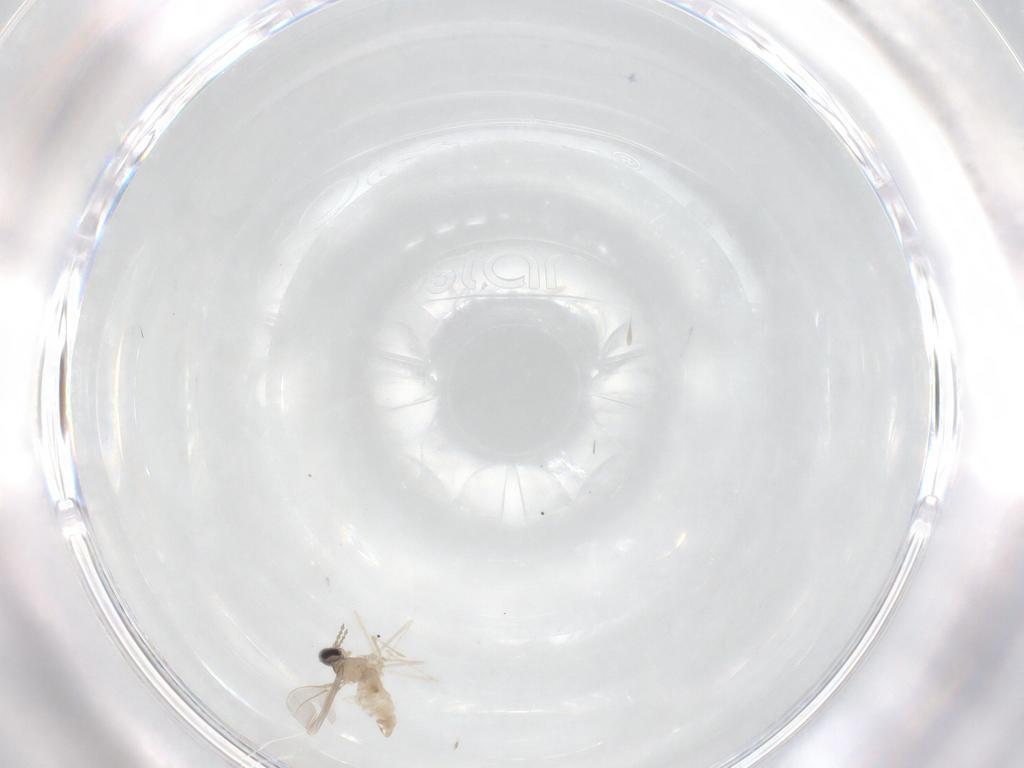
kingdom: Animalia
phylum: Arthropoda
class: Insecta
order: Diptera
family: Cecidomyiidae
